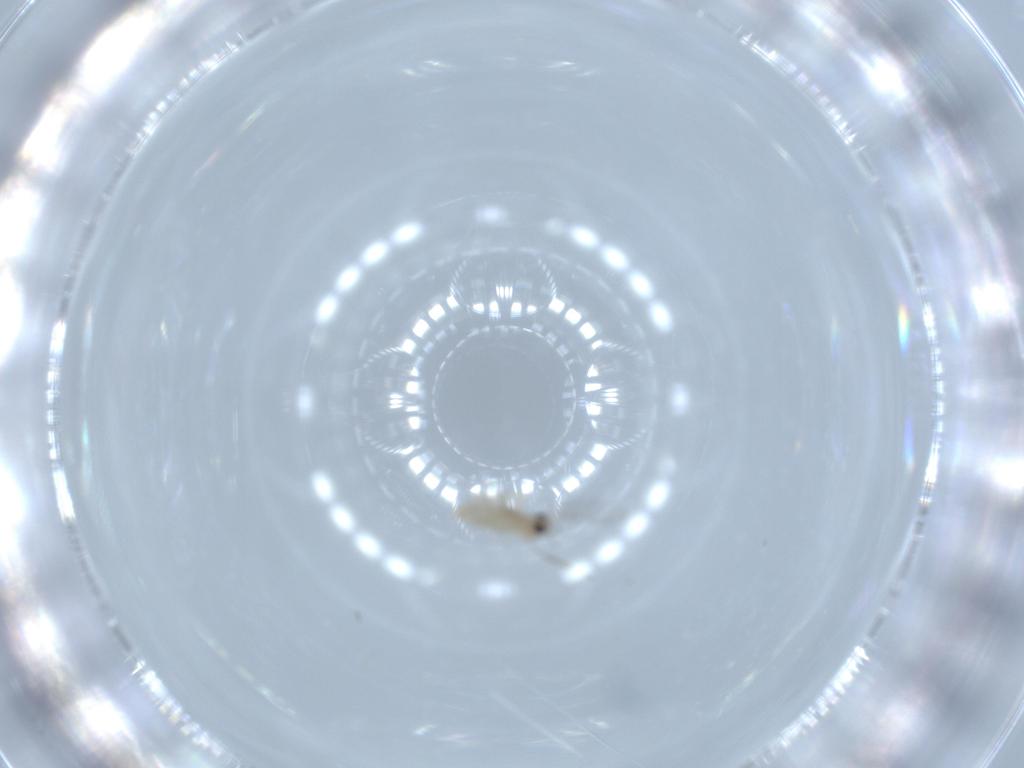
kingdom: Animalia
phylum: Arthropoda
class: Insecta
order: Diptera
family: Cecidomyiidae
